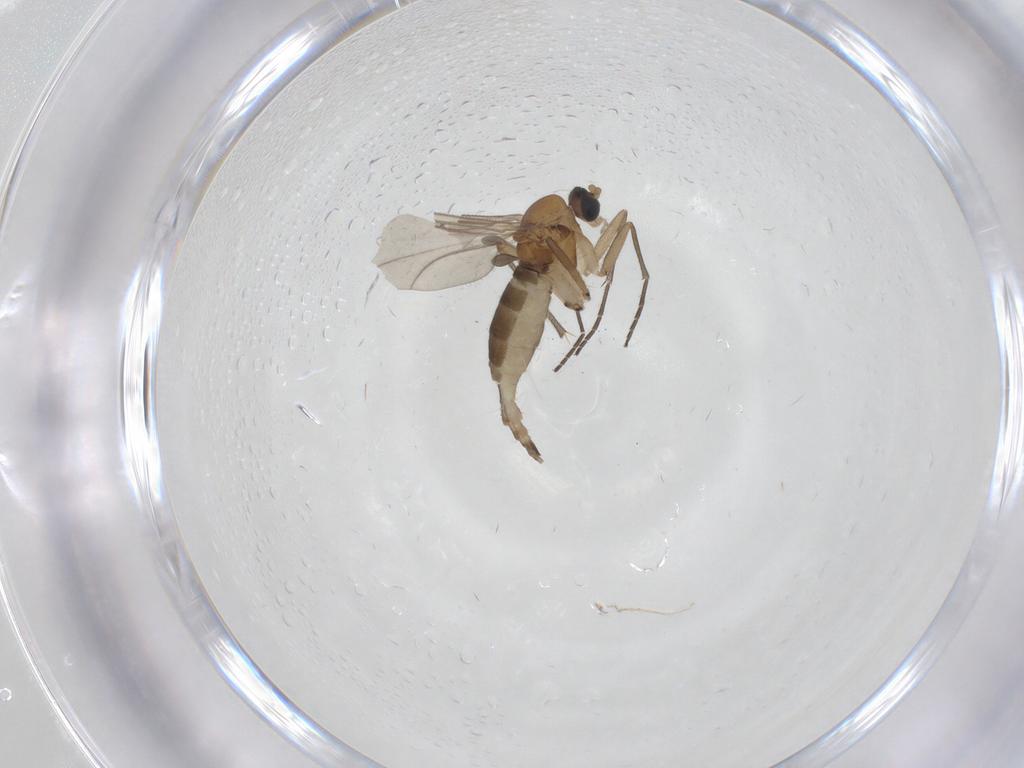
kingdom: Animalia
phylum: Arthropoda
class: Insecta
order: Diptera
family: Sciaridae
